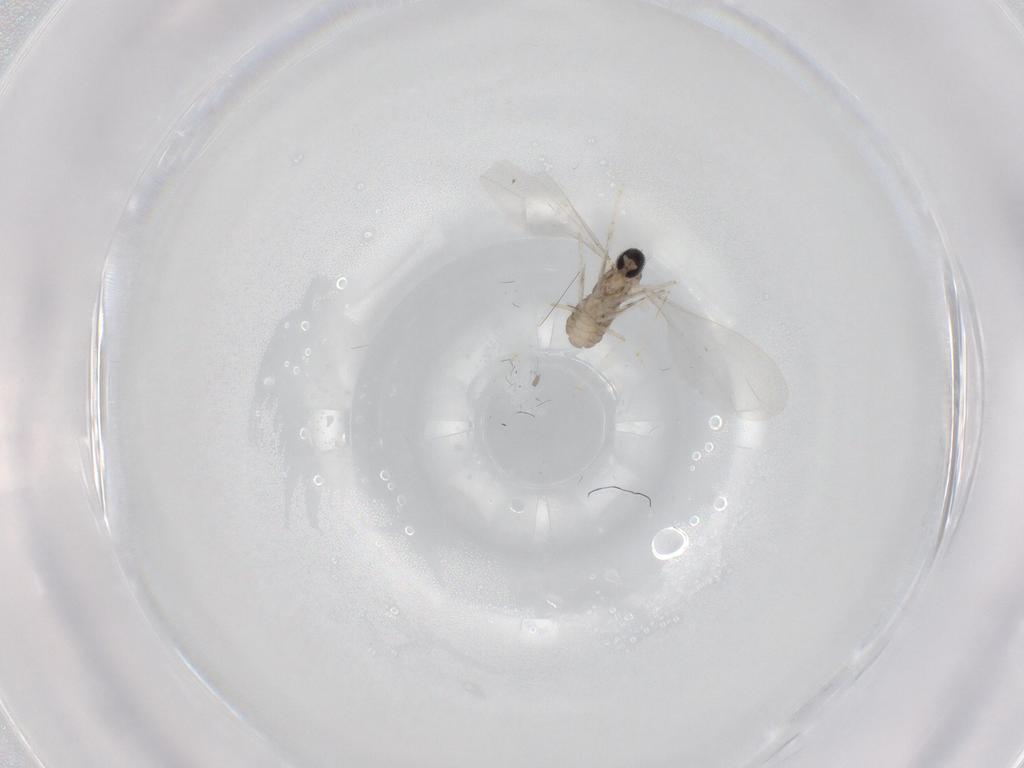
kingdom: Animalia
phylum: Arthropoda
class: Insecta
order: Diptera
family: Cecidomyiidae
